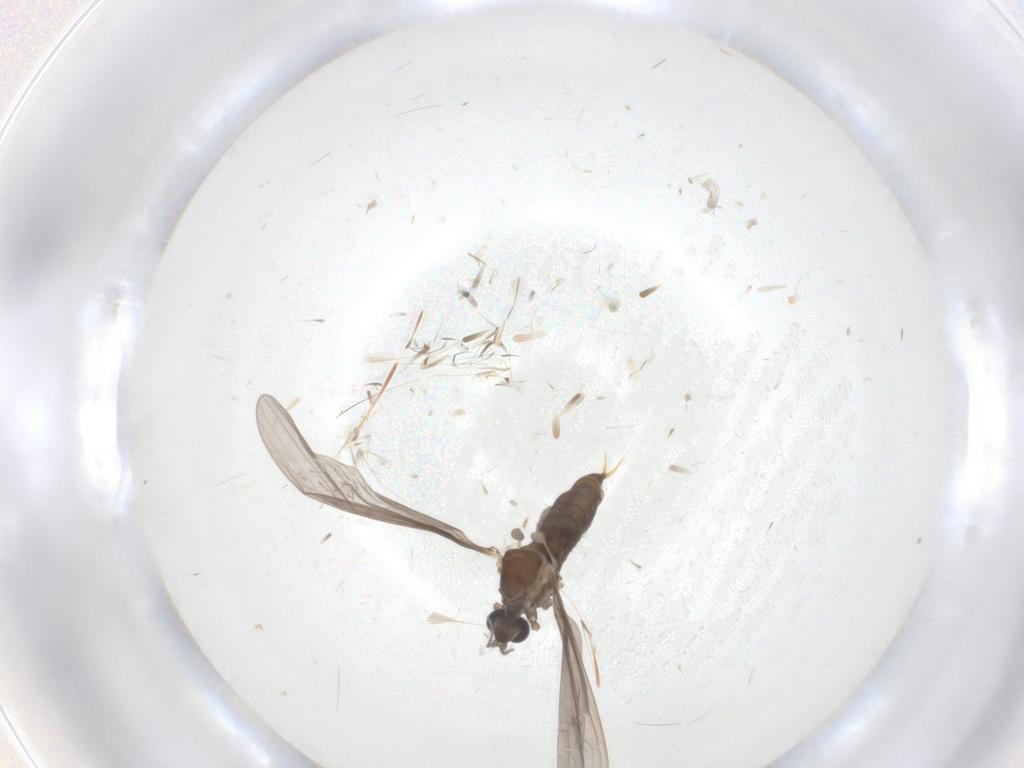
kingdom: Animalia
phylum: Arthropoda
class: Insecta
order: Diptera
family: Limoniidae
